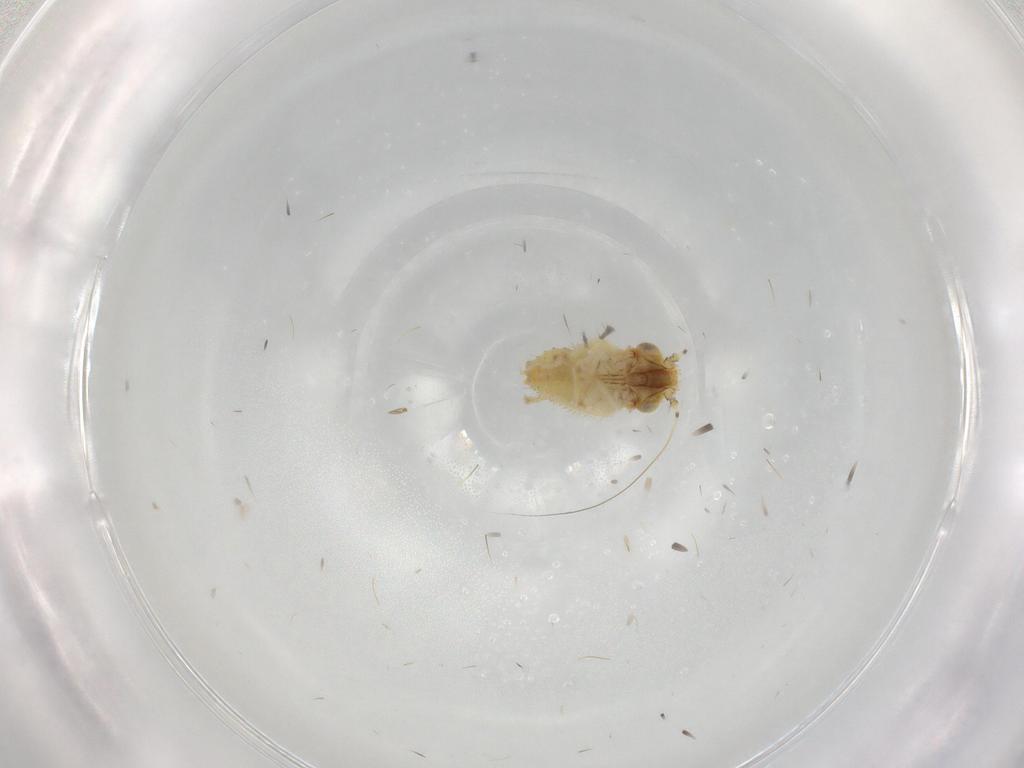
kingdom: Animalia
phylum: Arthropoda
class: Insecta
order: Hemiptera
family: Cicadellidae
